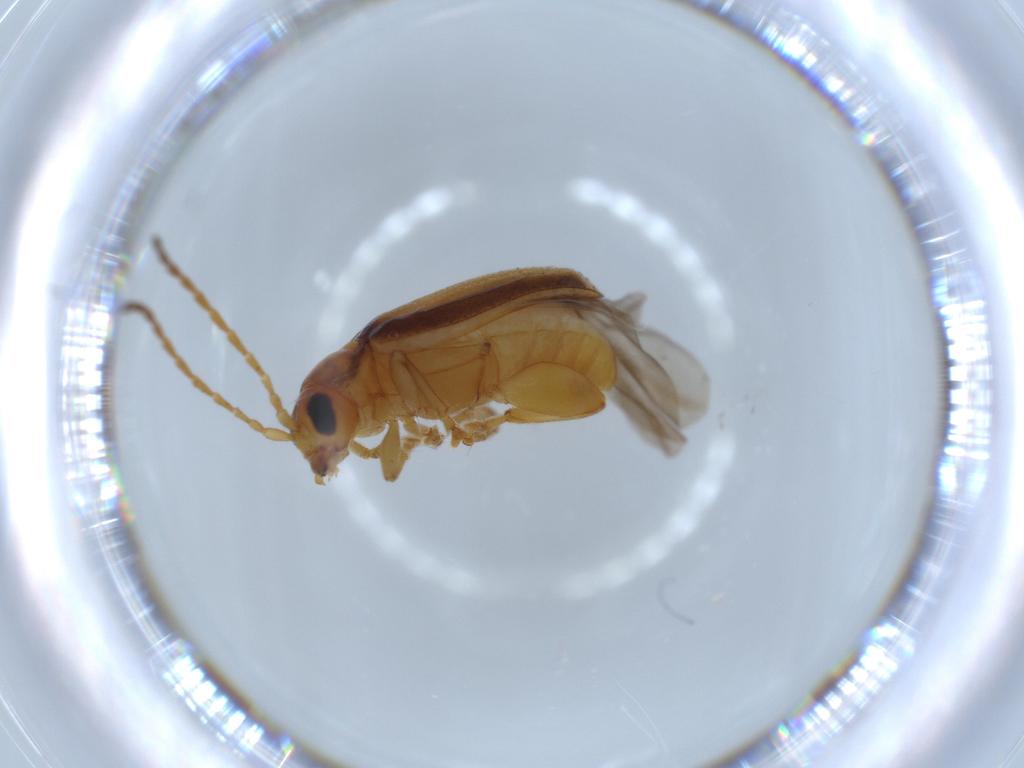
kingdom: Animalia
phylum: Arthropoda
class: Insecta
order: Coleoptera
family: Chrysomelidae
